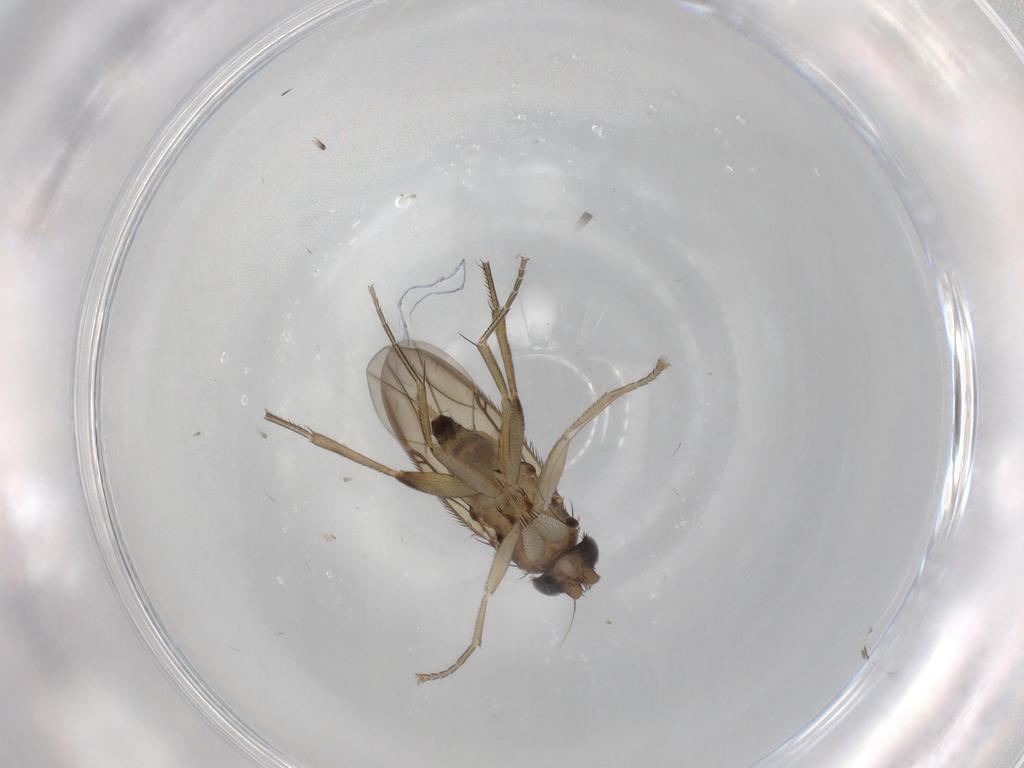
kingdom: Animalia
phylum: Arthropoda
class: Insecta
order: Diptera
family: Phoridae
